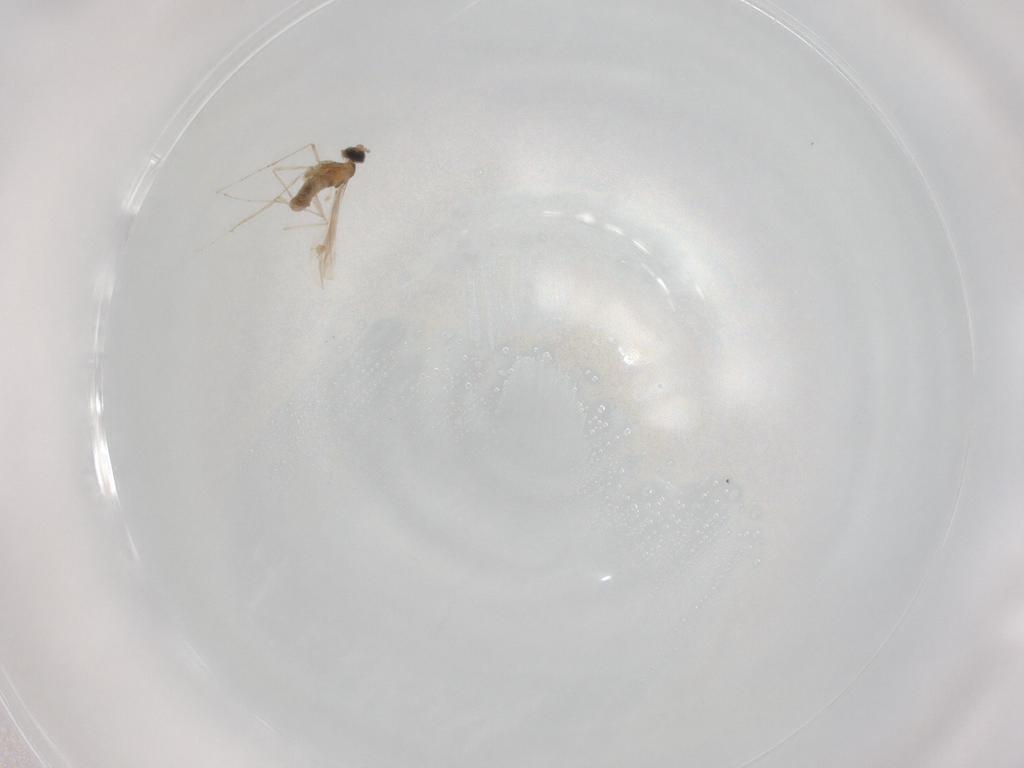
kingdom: Animalia
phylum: Arthropoda
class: Insecta
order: Diptera
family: Cecidomyiidae
